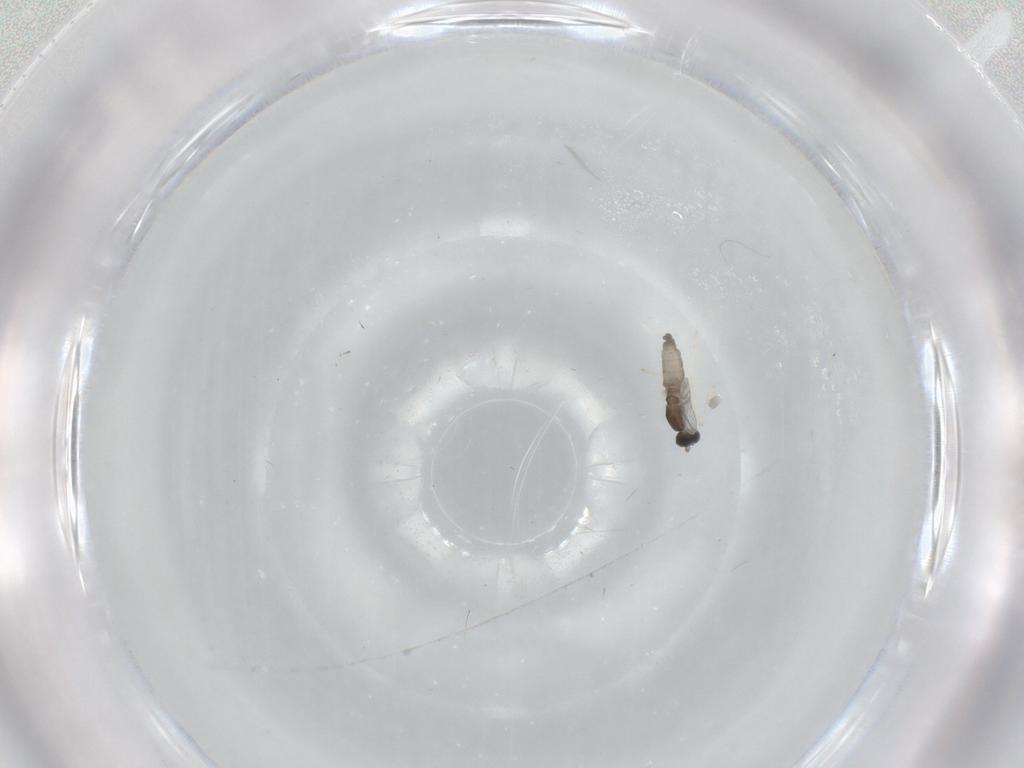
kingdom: Animalia
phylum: Arthropoda
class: Insecta
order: Diptera
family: Cecidomyiidae
